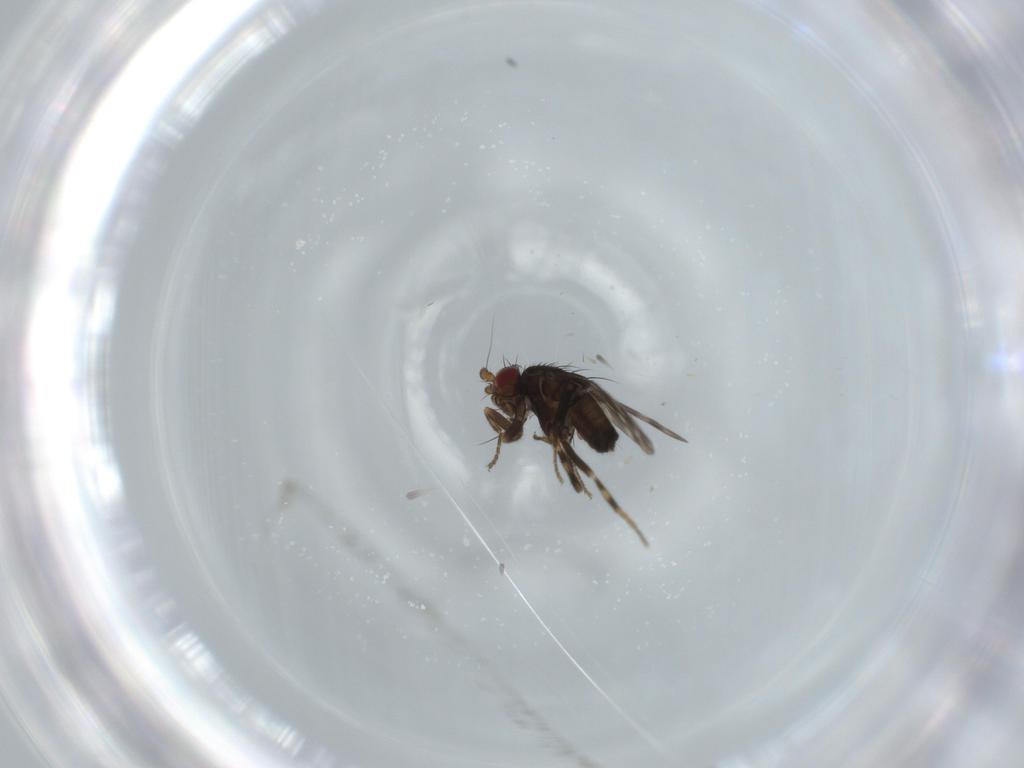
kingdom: Animalia
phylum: Arthropoda
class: Insecta
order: Diptera
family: Sphaeroceridae
